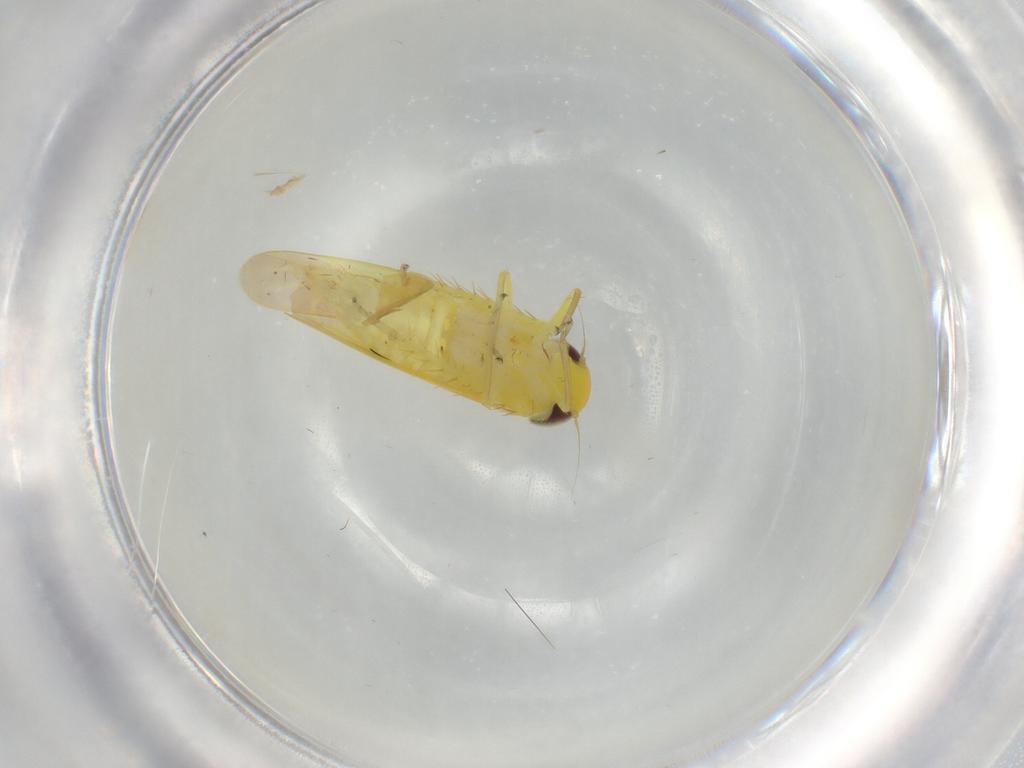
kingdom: Animalia
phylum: Arthropoda
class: Insecta
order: Hemiptera
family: Cicadellidae
